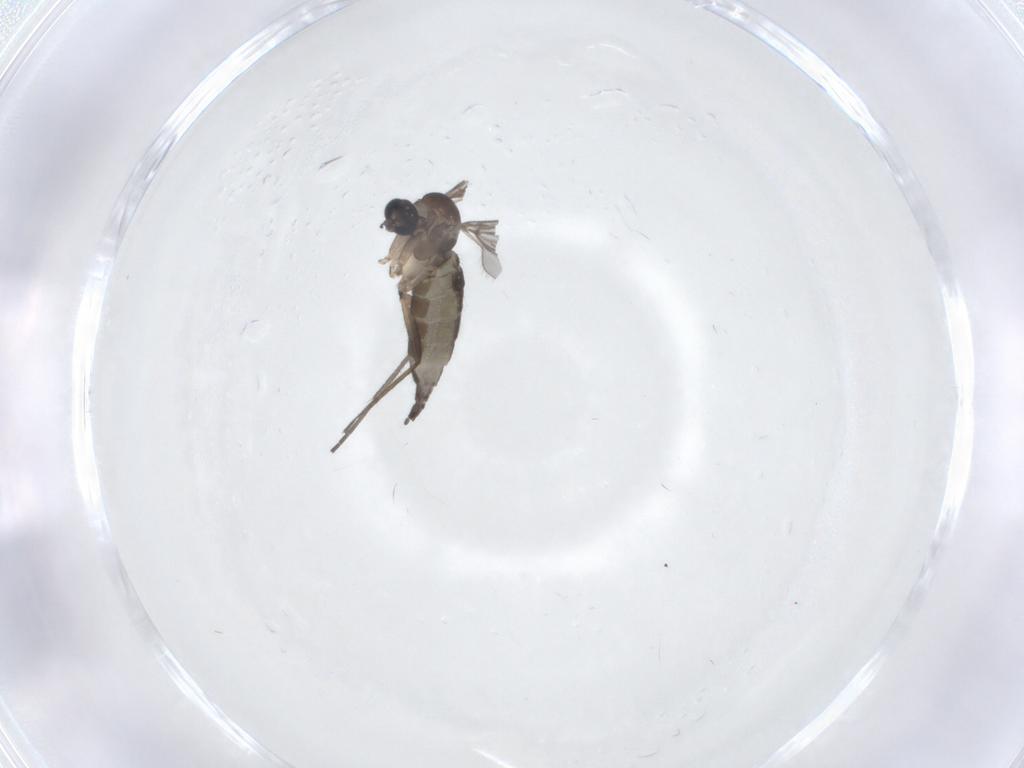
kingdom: Animalia
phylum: Arthropoda
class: Insecta
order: Diptera
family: Sciaridae
